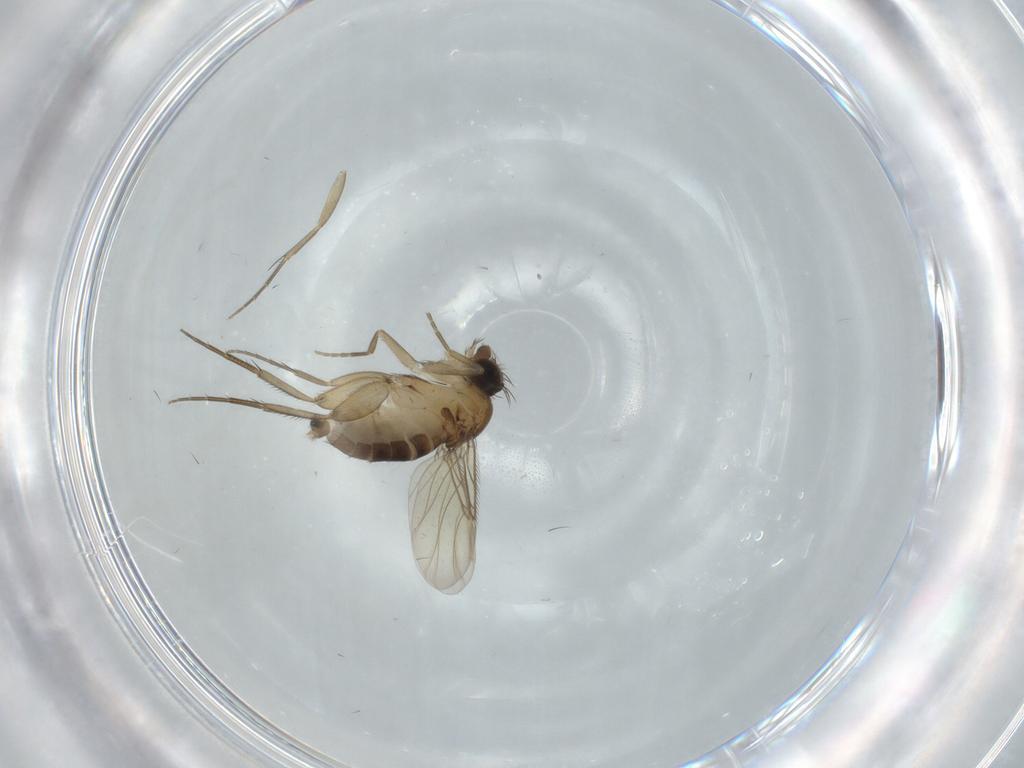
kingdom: Animalia
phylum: Arthropoda
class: Insecta
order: Diptera
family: Phoridae
